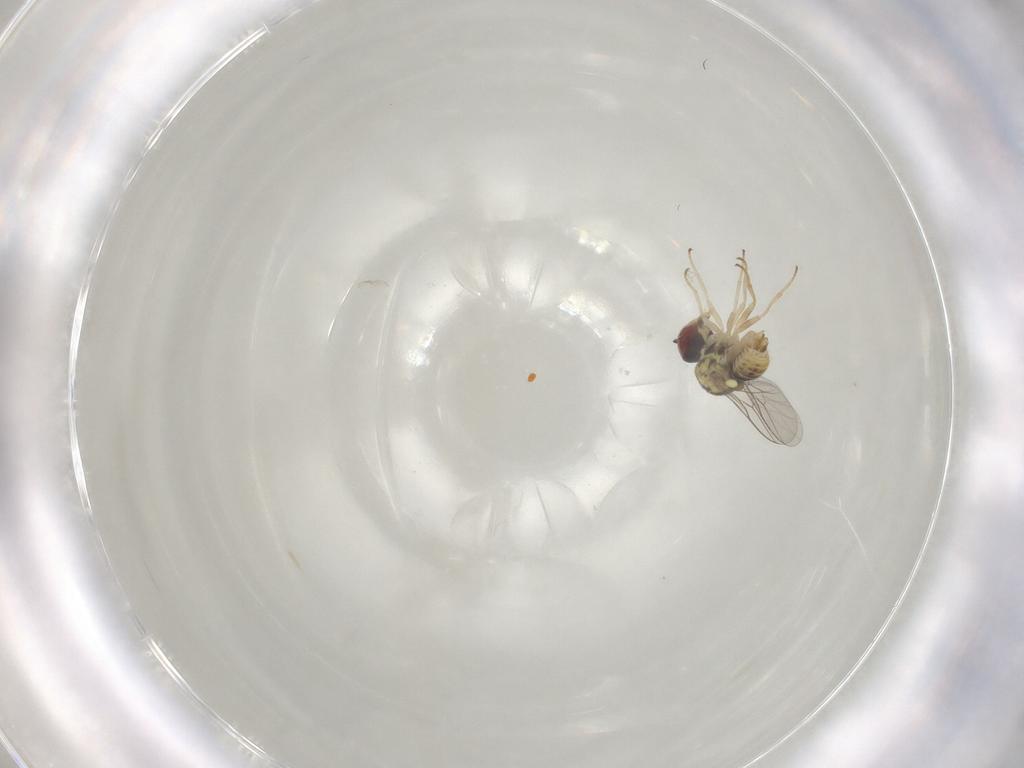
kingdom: Animalia
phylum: Arthropoda
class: Insecta
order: Diptera
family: Bombyliidae
